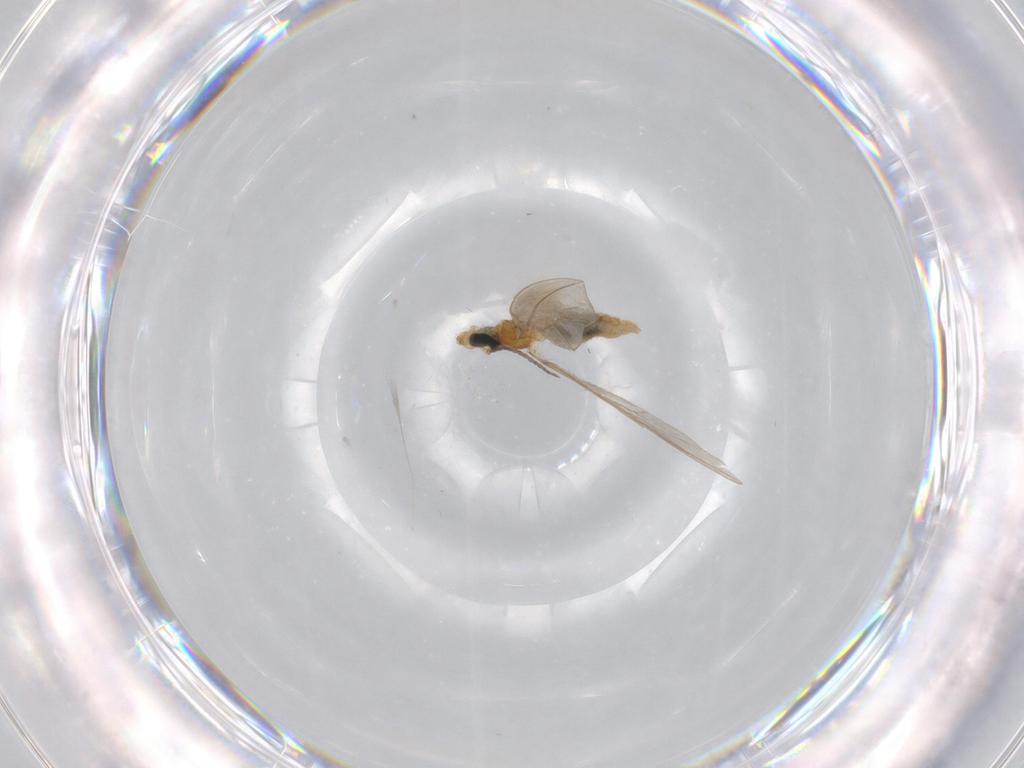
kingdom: Animalia
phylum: Arthropoda
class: Insecta
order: Diptera
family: Cecidomyiidae
